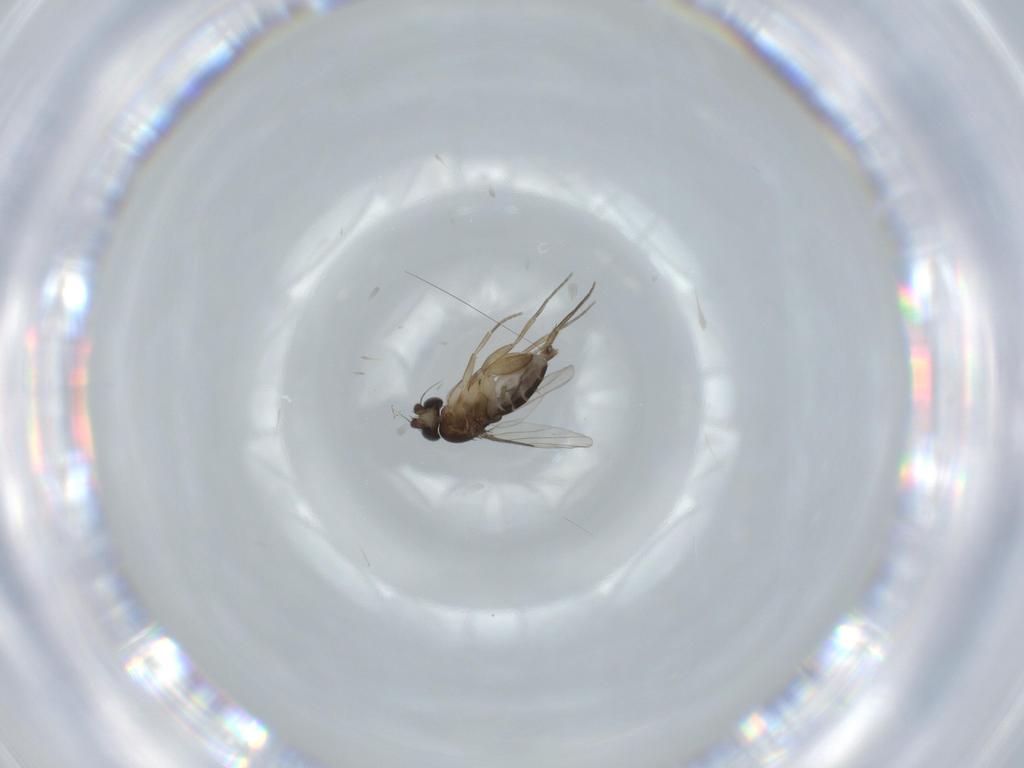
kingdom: Animalia
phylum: Arthropoda
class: Insecta
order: Diptera
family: Phoridae
